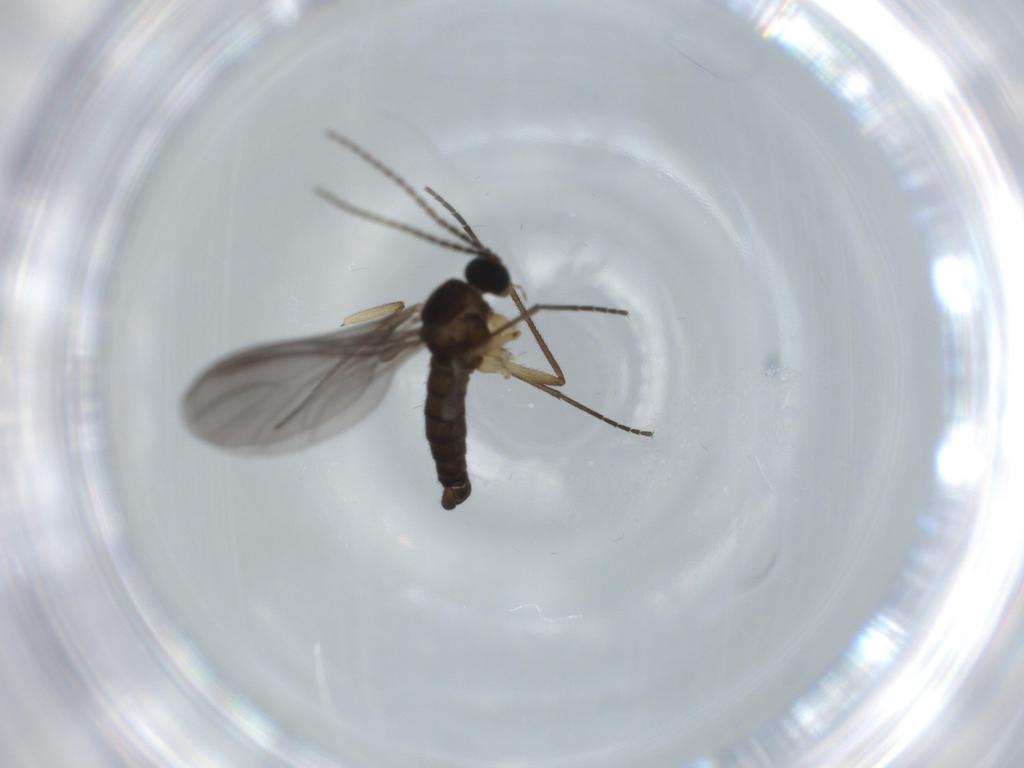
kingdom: Animalia
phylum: Arthropoda
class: Insecta
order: Diptera
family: Sciaridae
